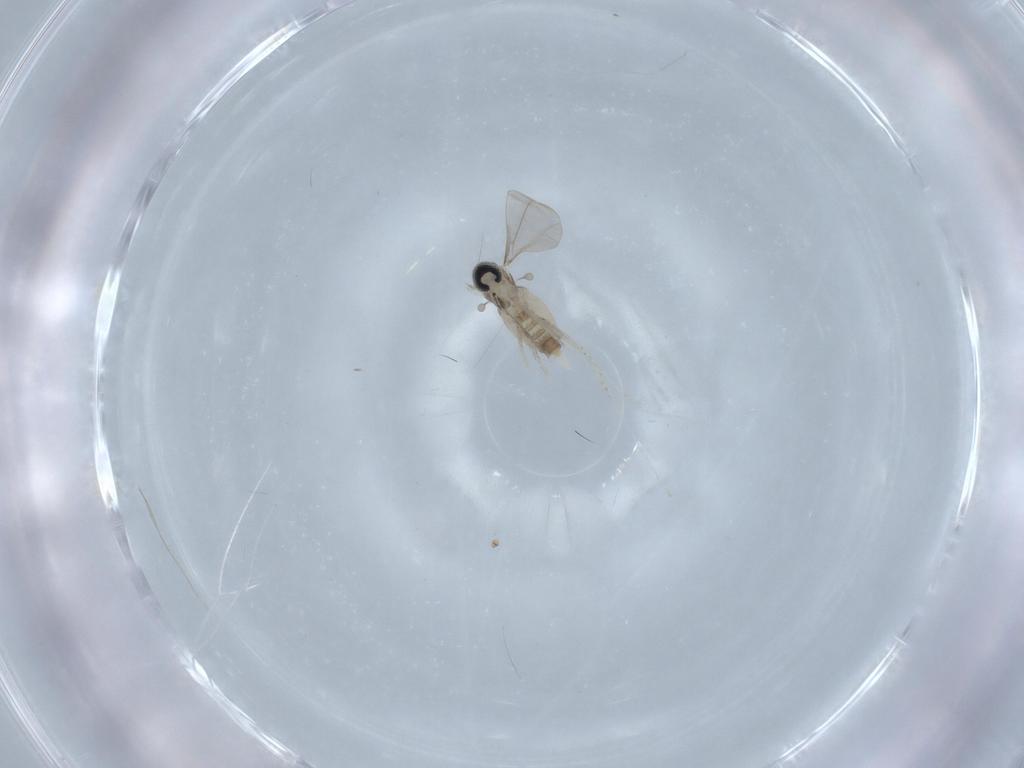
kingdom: Animalia
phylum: Arthropoda
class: Insecta
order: Diptera
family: Cecidomyiidae
